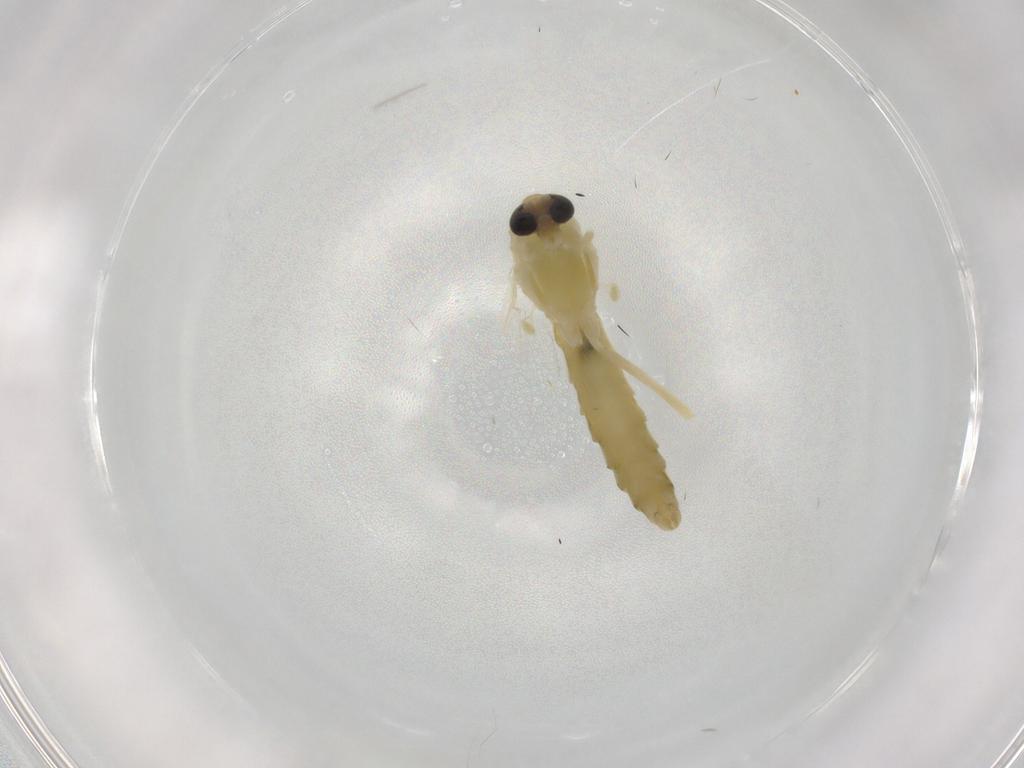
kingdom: Animalia
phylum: Arthropoda
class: Insecta
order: Diptera
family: Chironomidae
